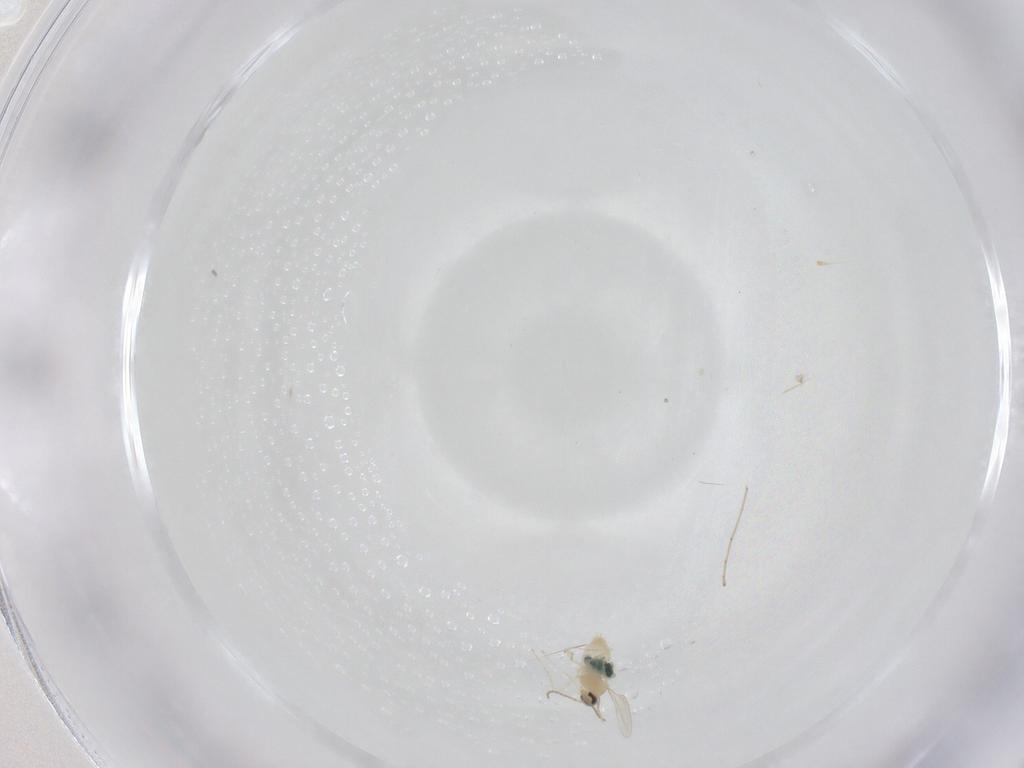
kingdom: Animalia
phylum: Arthropoda
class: Insecta
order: Diptera
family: Cecidomyiidae
